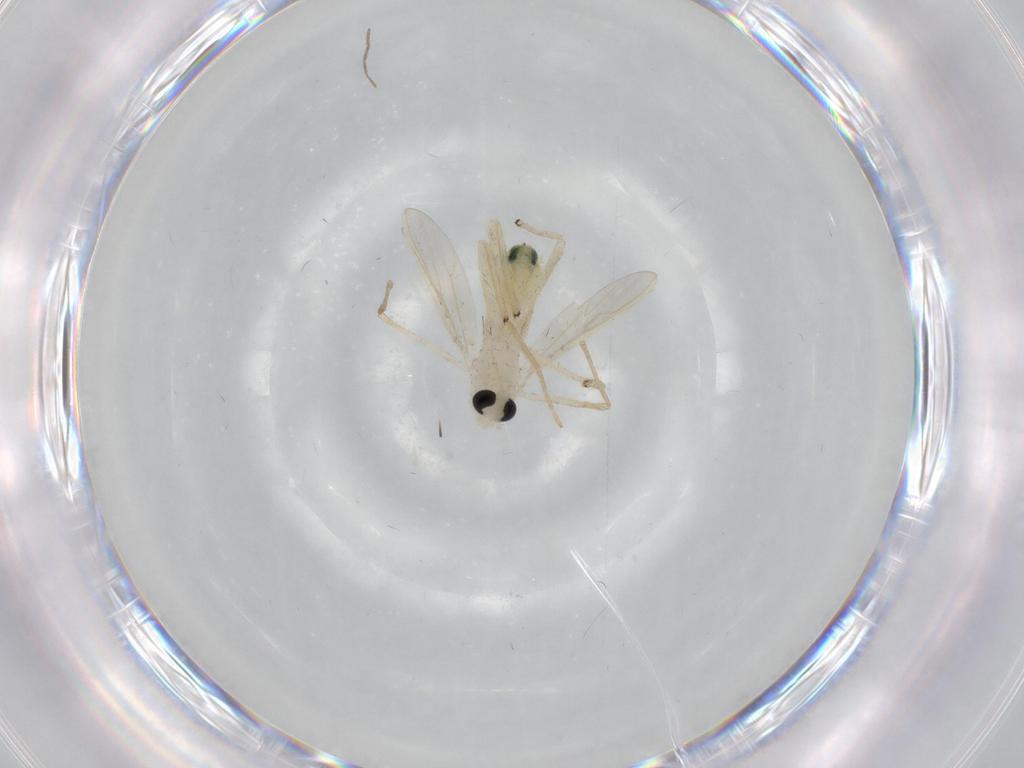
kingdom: Animalia
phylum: Arthropoda
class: Insecta
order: Diptera
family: Chironomidae
